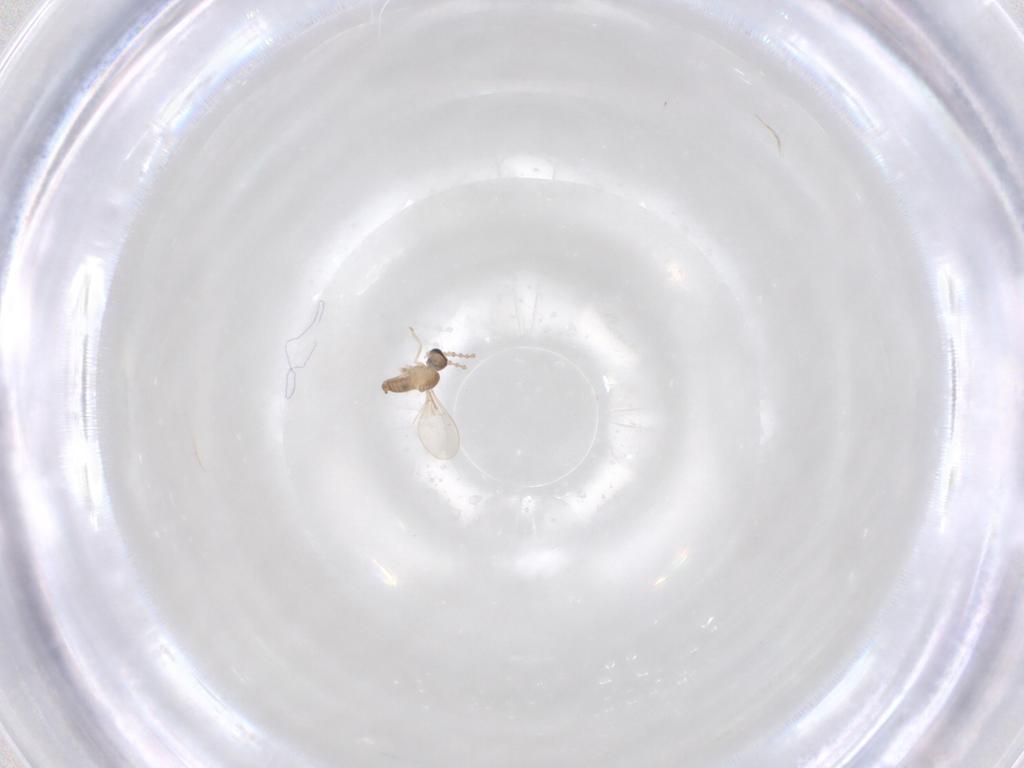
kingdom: Animalia
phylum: Arthropoda
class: Insecta
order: Diptera
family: Cecidomyiidae
